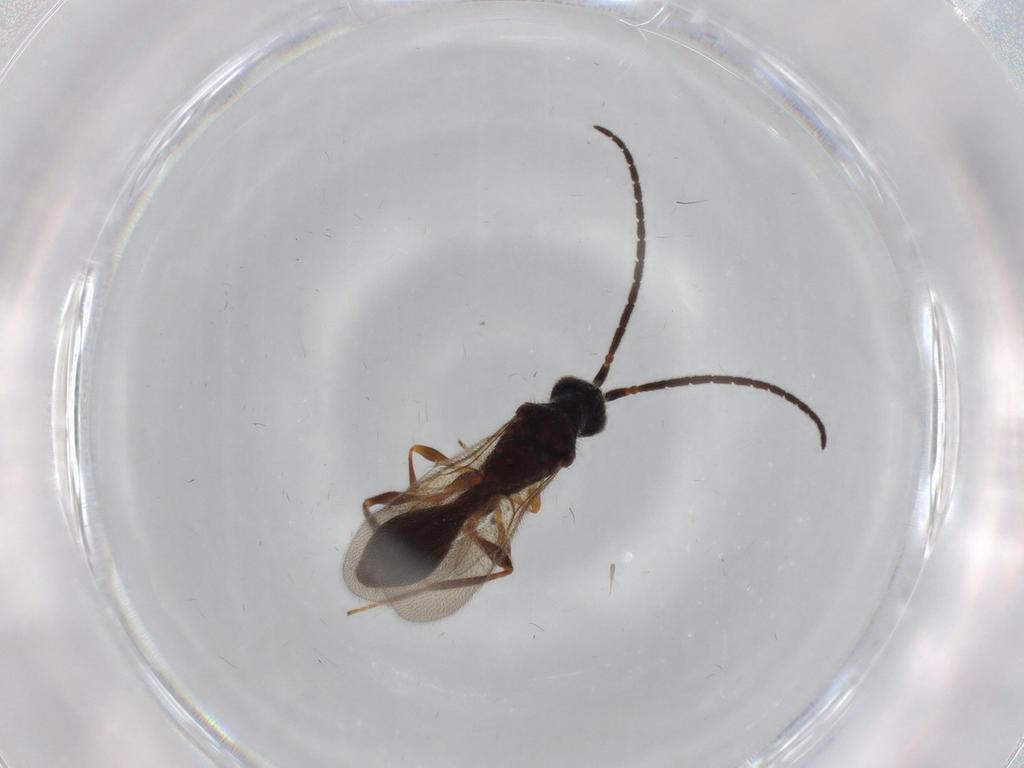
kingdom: Animalia
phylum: Arthropoda
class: Insecta
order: Hymenoptera
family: Diapriidae
